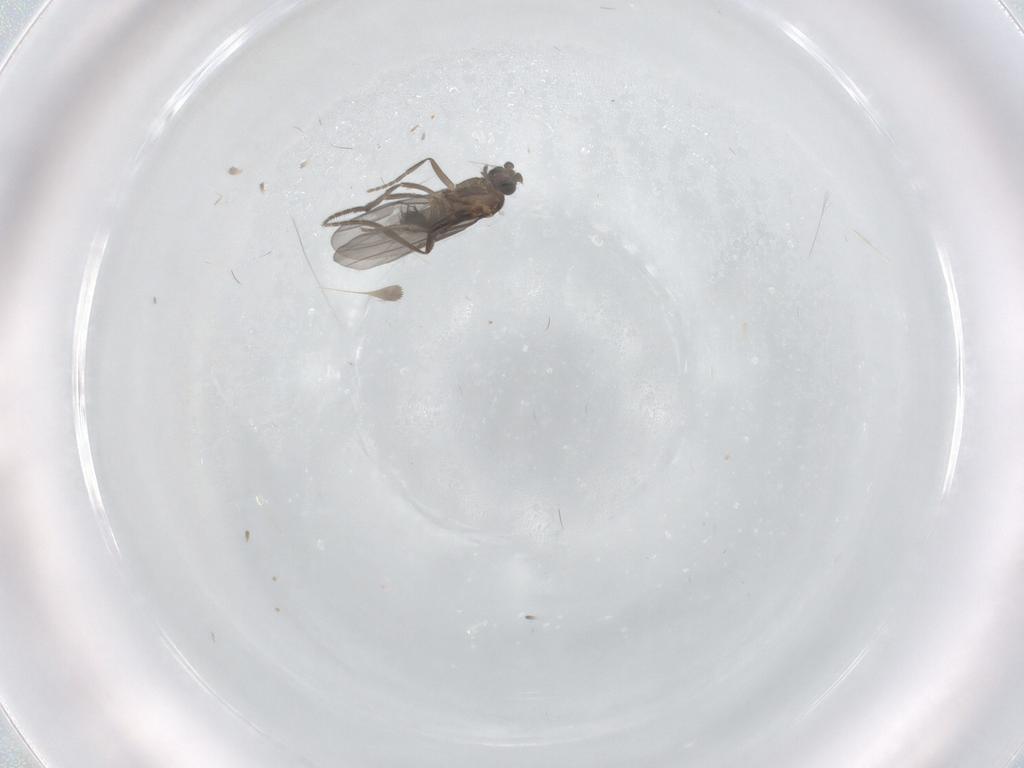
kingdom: Animalia
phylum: Arthropoda
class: Insecta
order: Diptera
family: Phoridae
